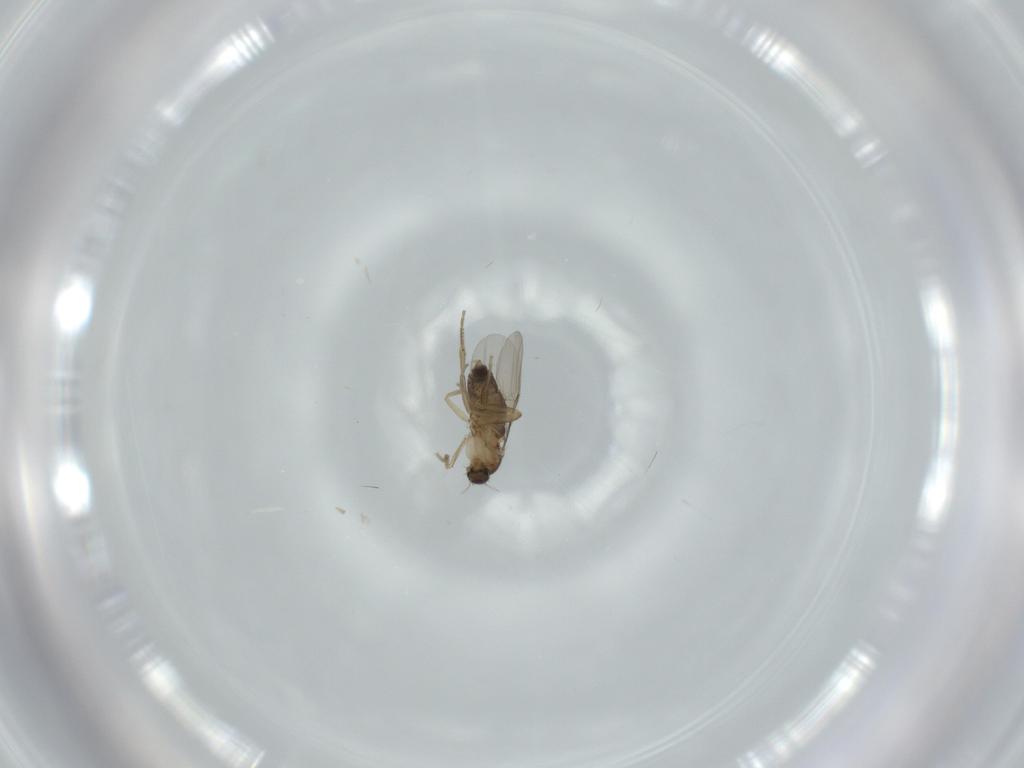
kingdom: Animalia
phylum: Arthropoda
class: Insecta
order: Diptera
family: Phoridae
